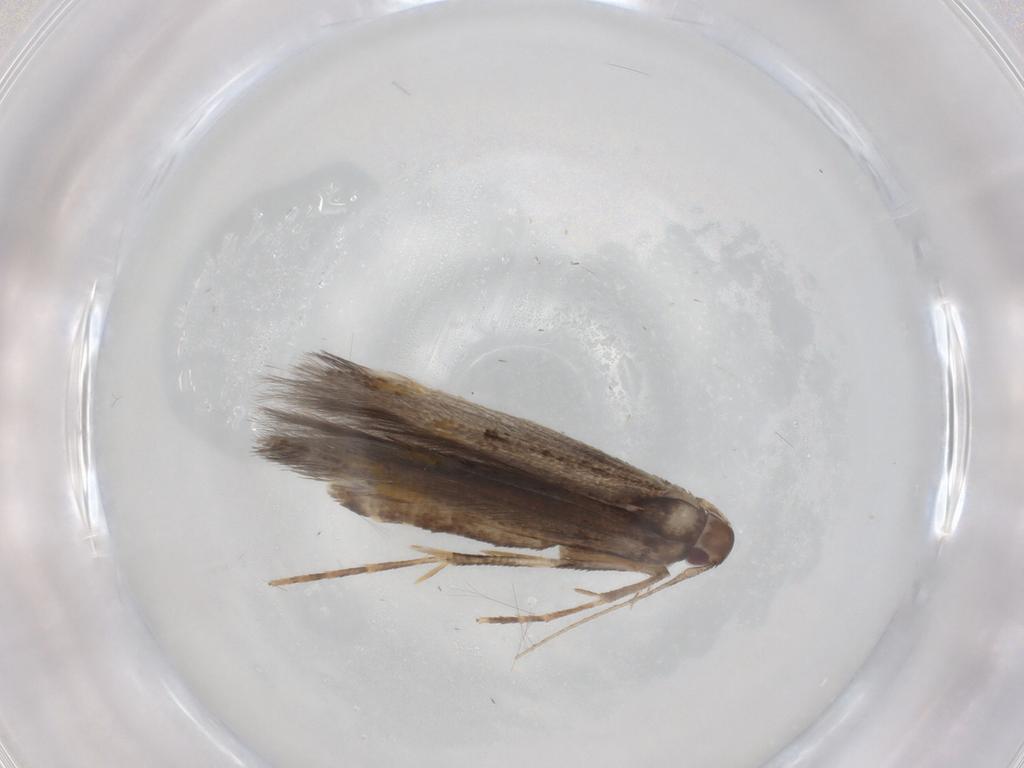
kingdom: Animalia
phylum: Arthropoda
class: Insecta
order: Lepidoptera
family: Cosmopterigidae
